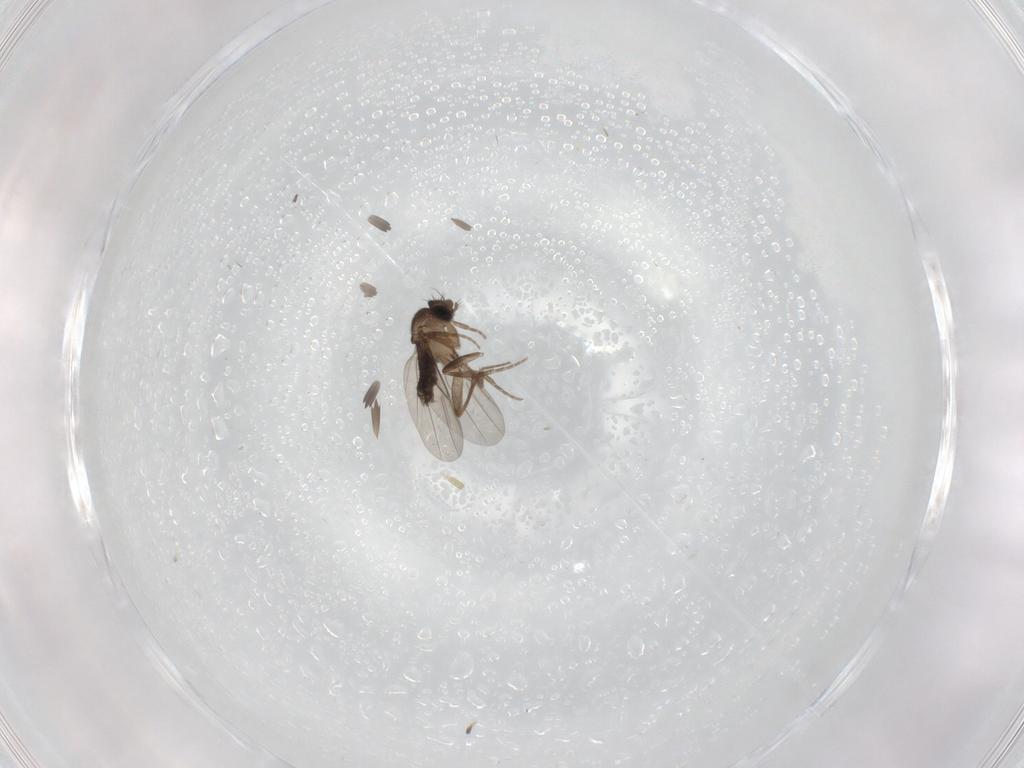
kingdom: Animalia
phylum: Arthropoda
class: Insecta
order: Diptera
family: Phoridae
